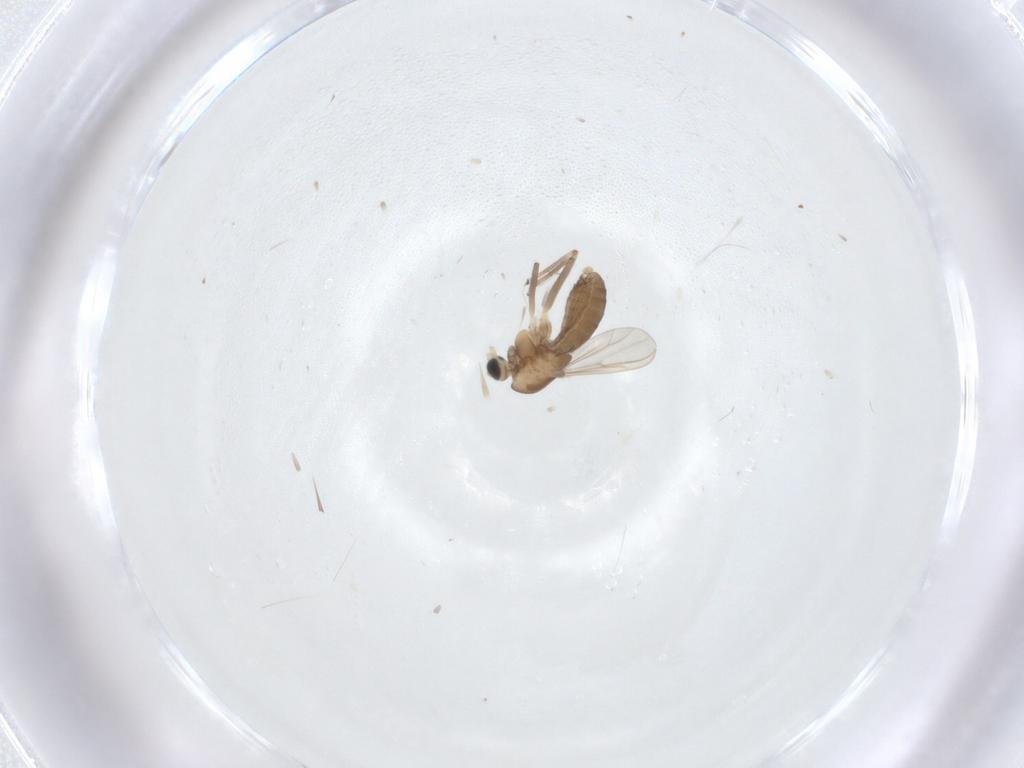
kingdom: Animalia
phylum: Arthropoda
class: Insecta
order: Diptera
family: Chironomidae
